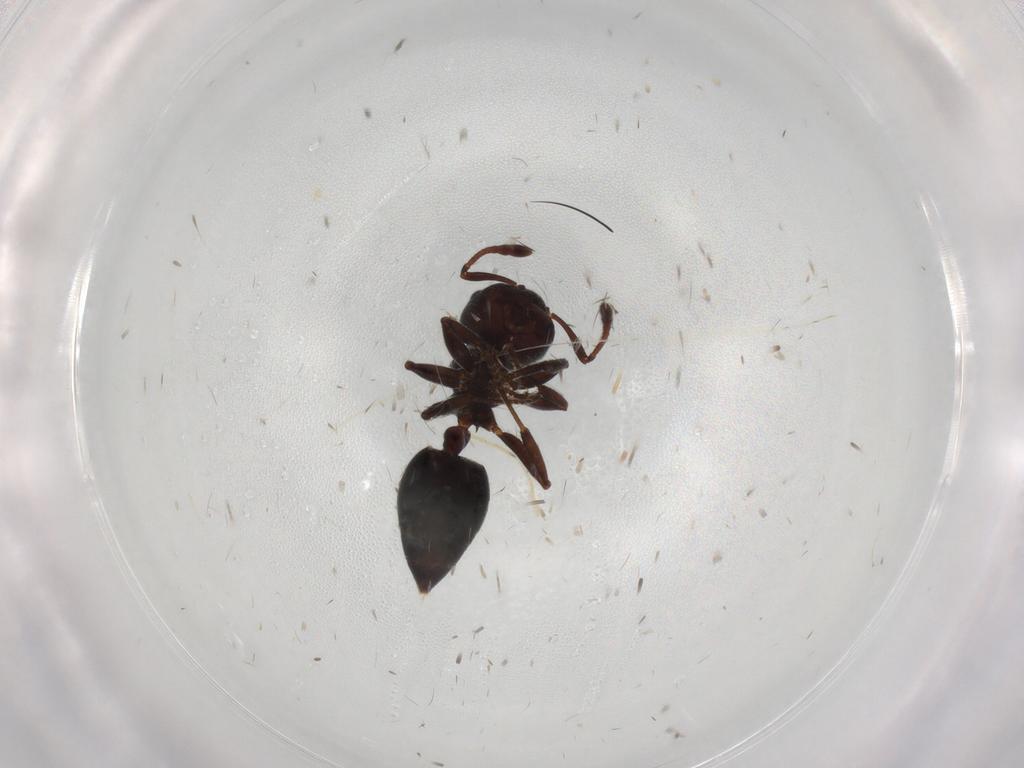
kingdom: Animalia
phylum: Arthropoda
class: Insecta
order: Hymenoptera
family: Formicidae
